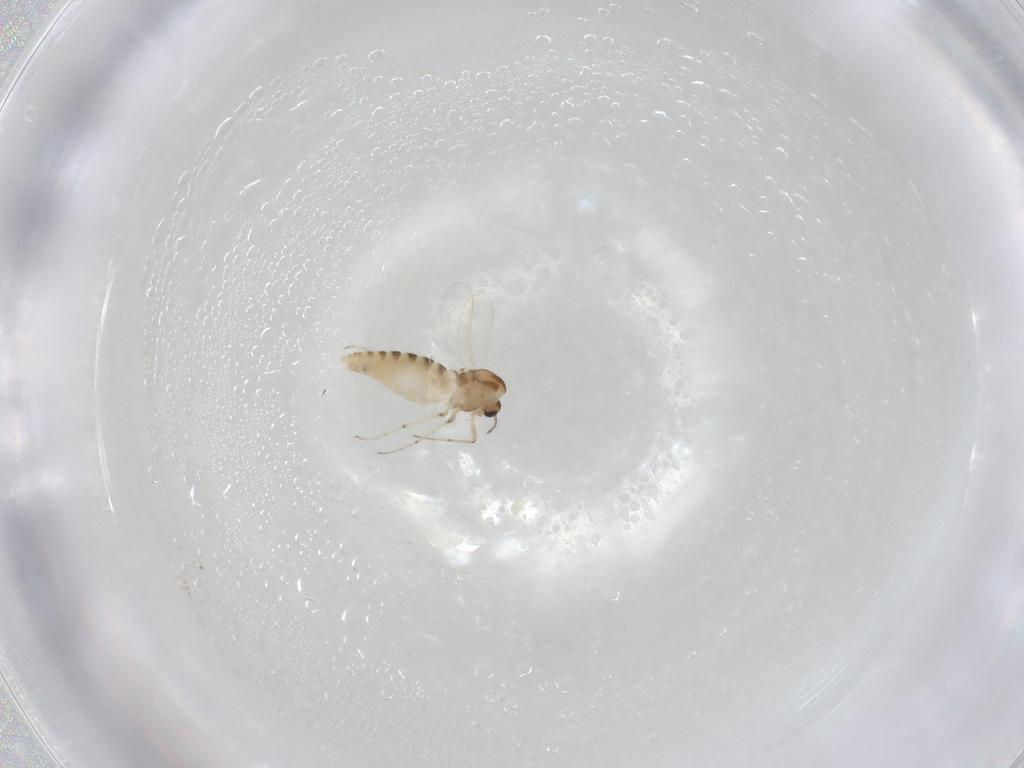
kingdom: Animalia
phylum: Arthropoda
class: Insecta
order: Diptera
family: Chironomidae
